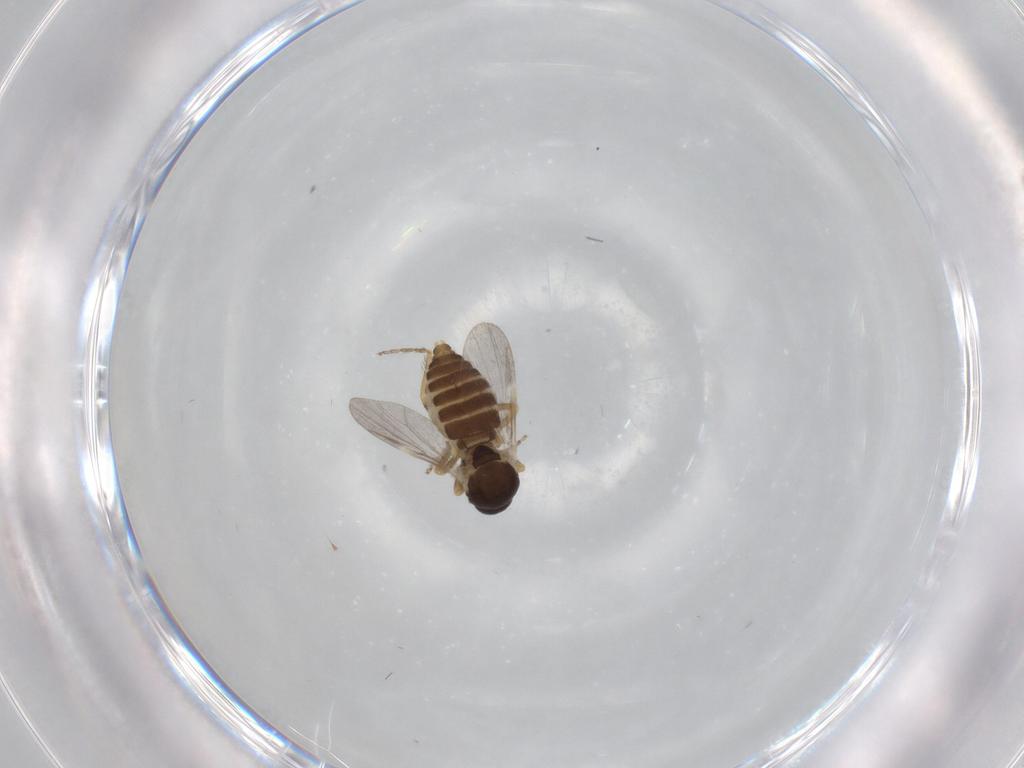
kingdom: Animalia
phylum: Arthropoda
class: Insecta
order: Diptera
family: Ceratopogonidae
